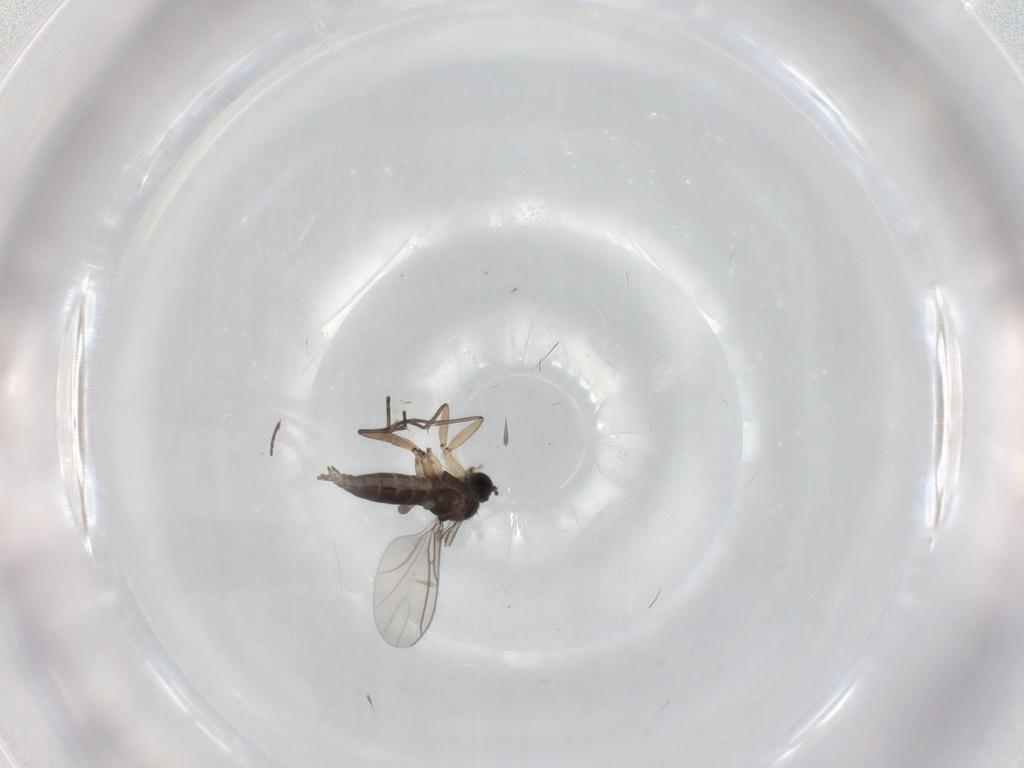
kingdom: Animalia
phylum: Arthropoda
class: Insecta
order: Diptera
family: Sciaridae
